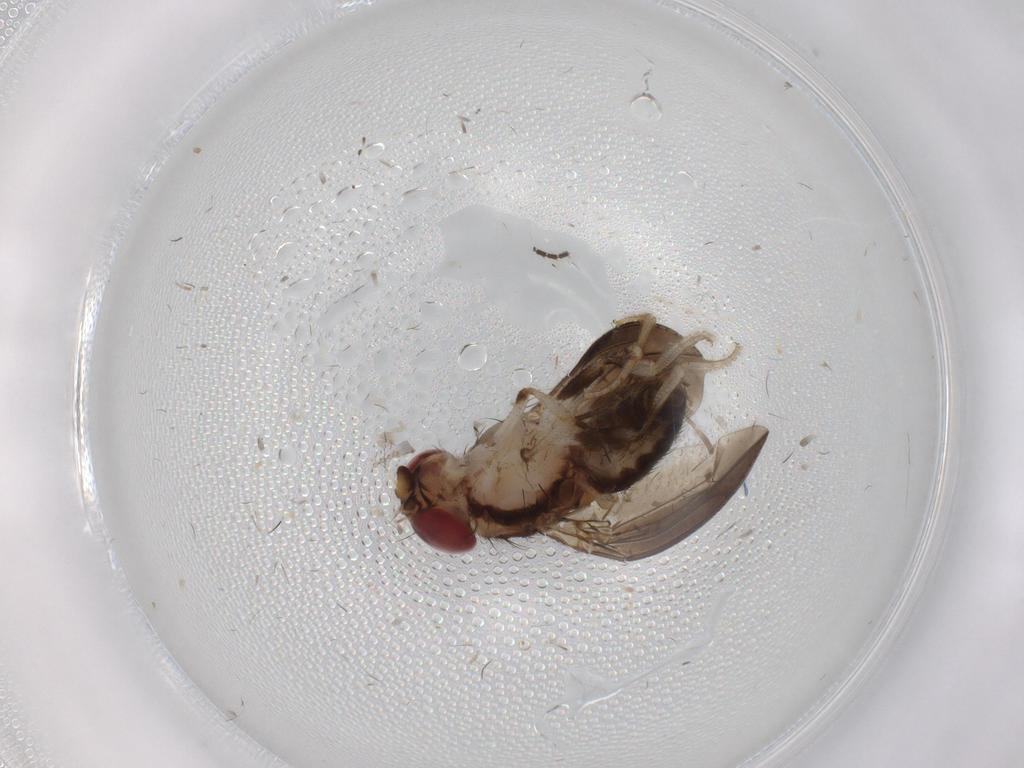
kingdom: Animalia
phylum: Arthropoda
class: Insecta
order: Diptera
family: Drosophilidae
